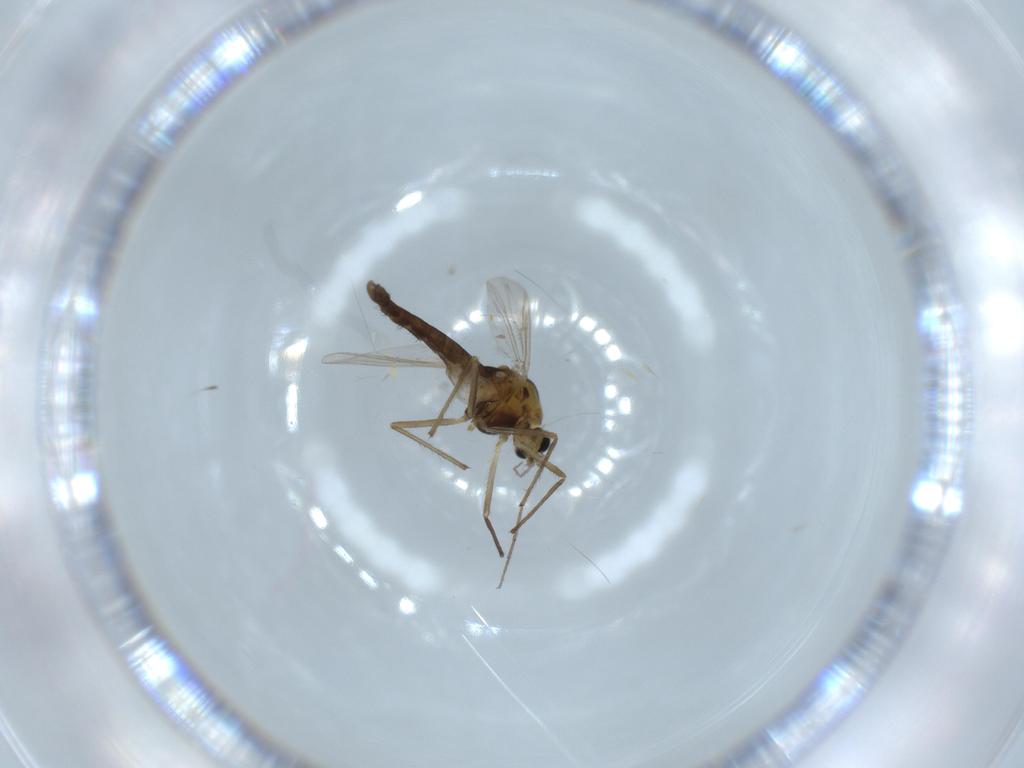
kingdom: Animalia
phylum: Arthropoda
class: Insecta
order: Diptera
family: Chironomidae
